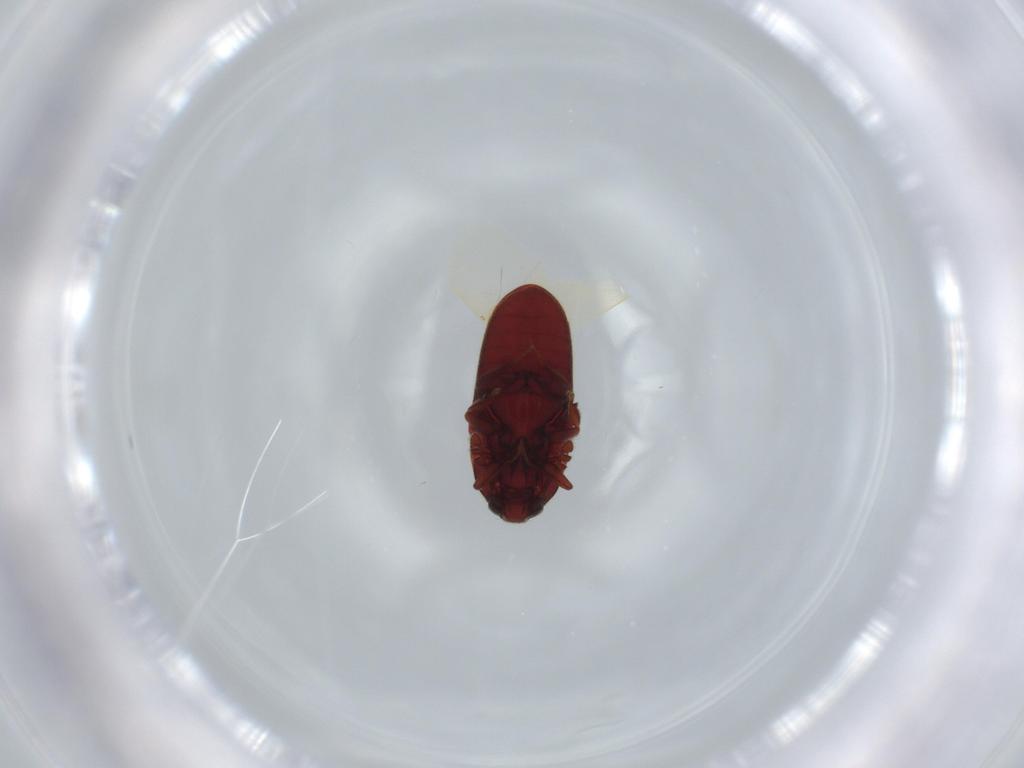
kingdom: Animalia
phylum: Arthropoda
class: Insecta
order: Coleoptera
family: Throscidae
